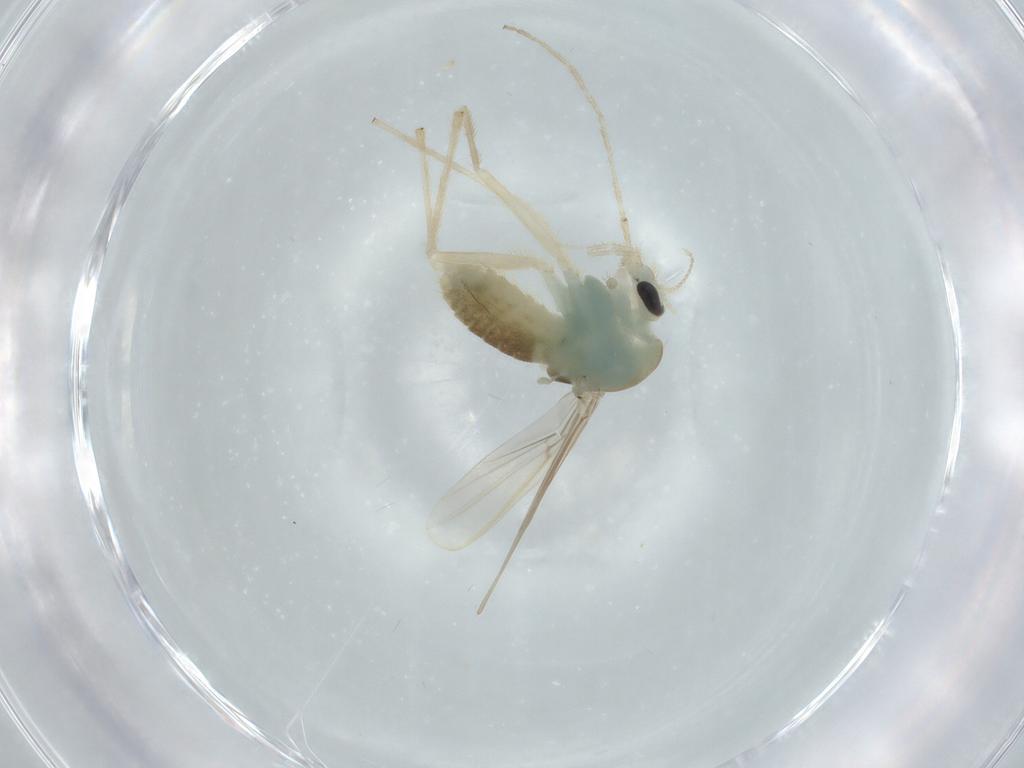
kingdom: Animalia
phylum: Arthropoda
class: Insecta
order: Diptera
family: Chironomidae
